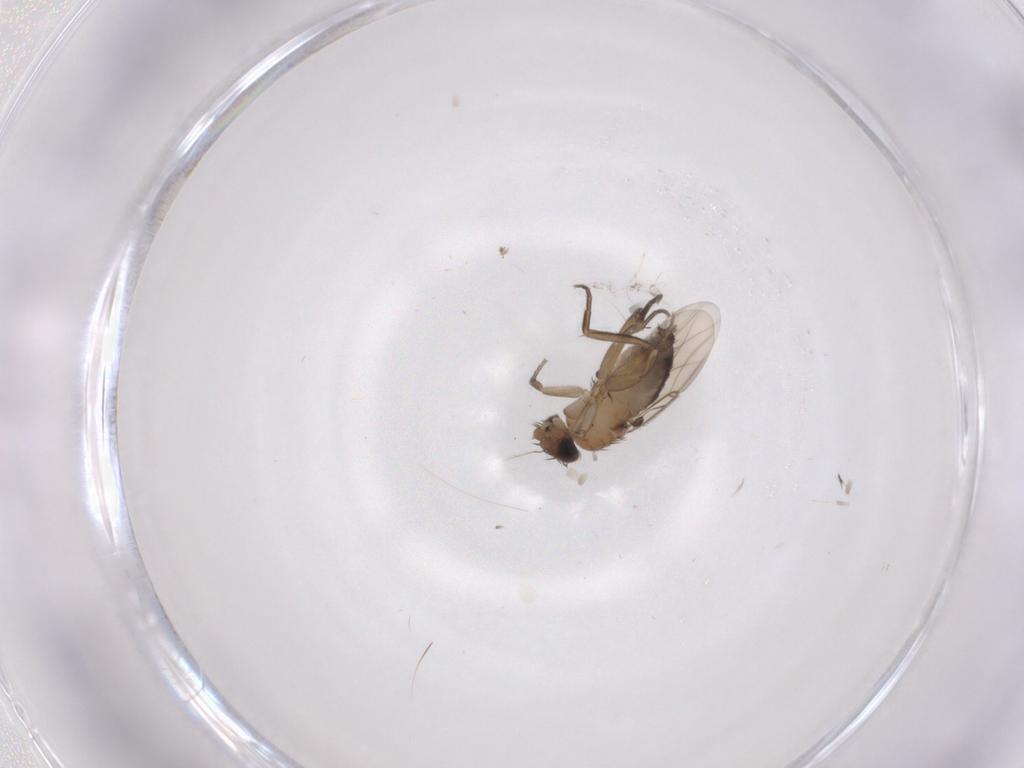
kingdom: Animalia
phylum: Arthropoda
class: Insecta
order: Diptera
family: Phoridae
